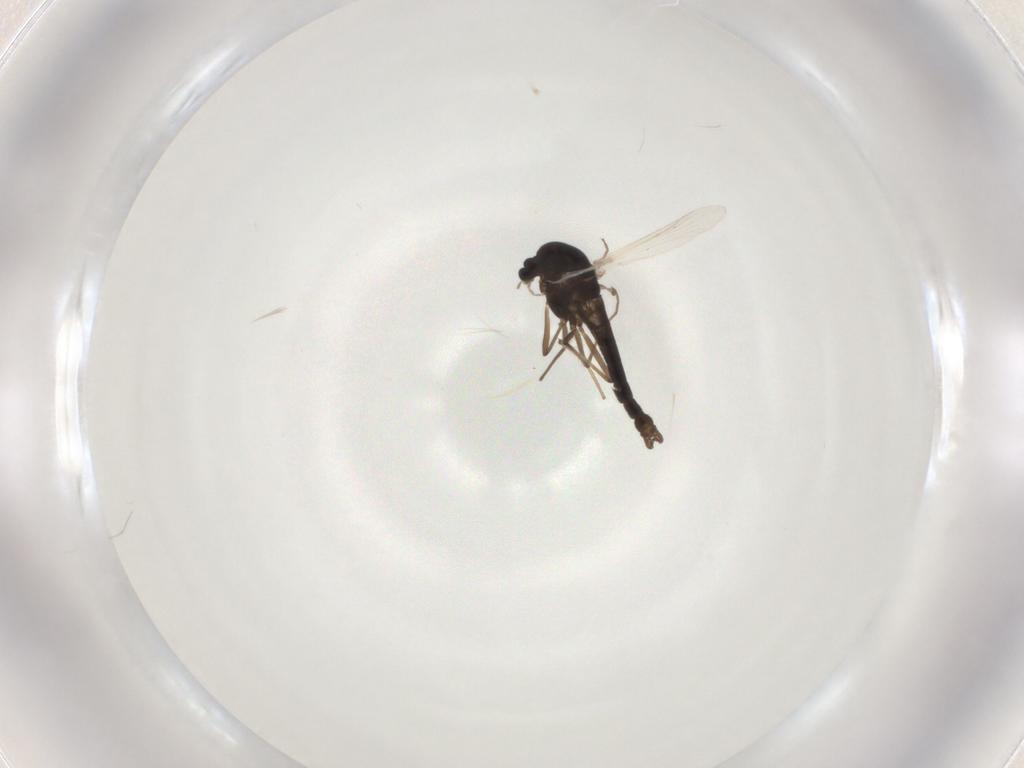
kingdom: Animalia
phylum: Arthropoda
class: Insecta
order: Diptera
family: Chironomidae
